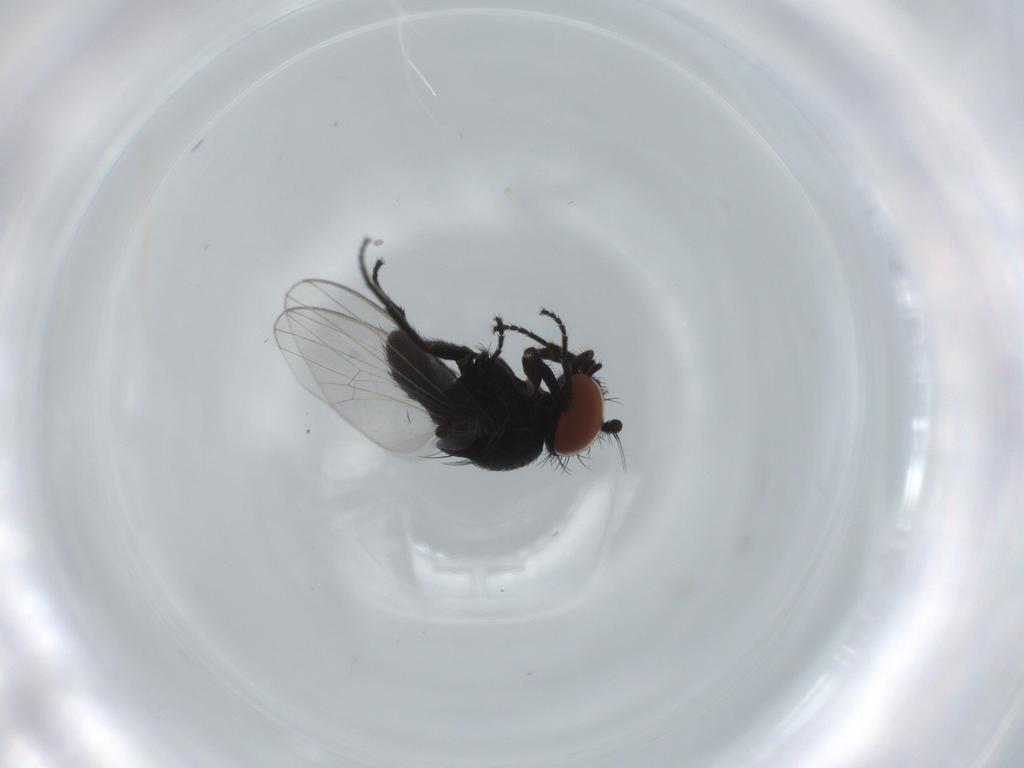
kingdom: Animalia
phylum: Arthropoda
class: Insecta
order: Diptera
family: Milichiidae
